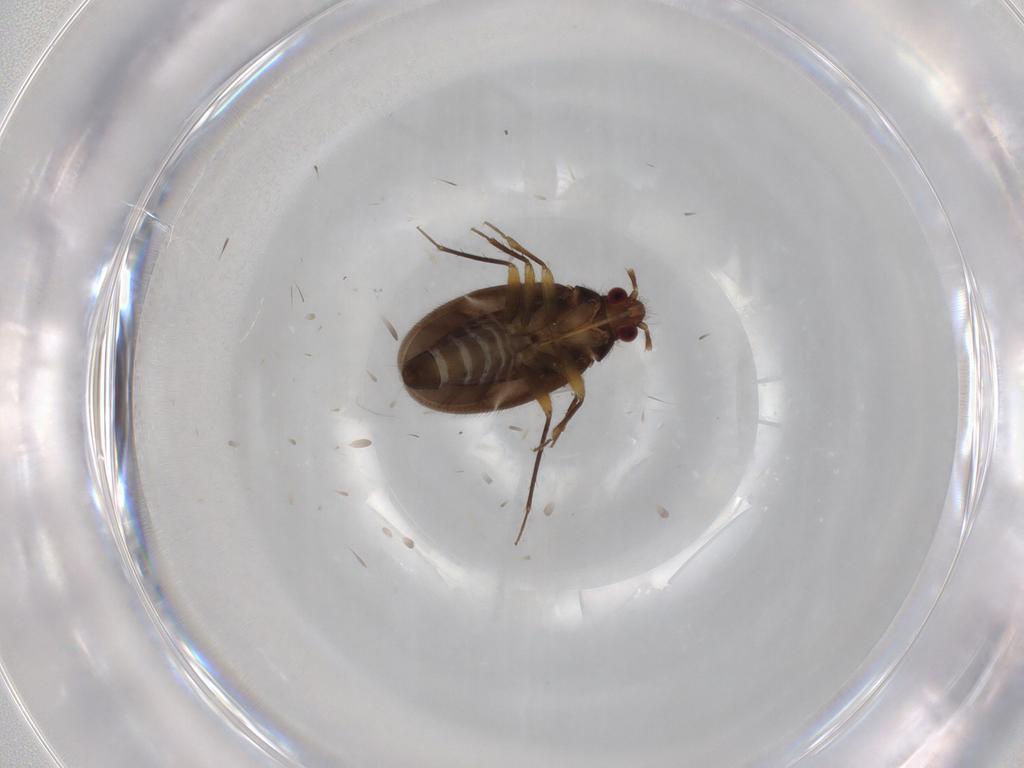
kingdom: Animalia
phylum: Arthropoda
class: Insecta
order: Hemiptera
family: Ceratocombidae
